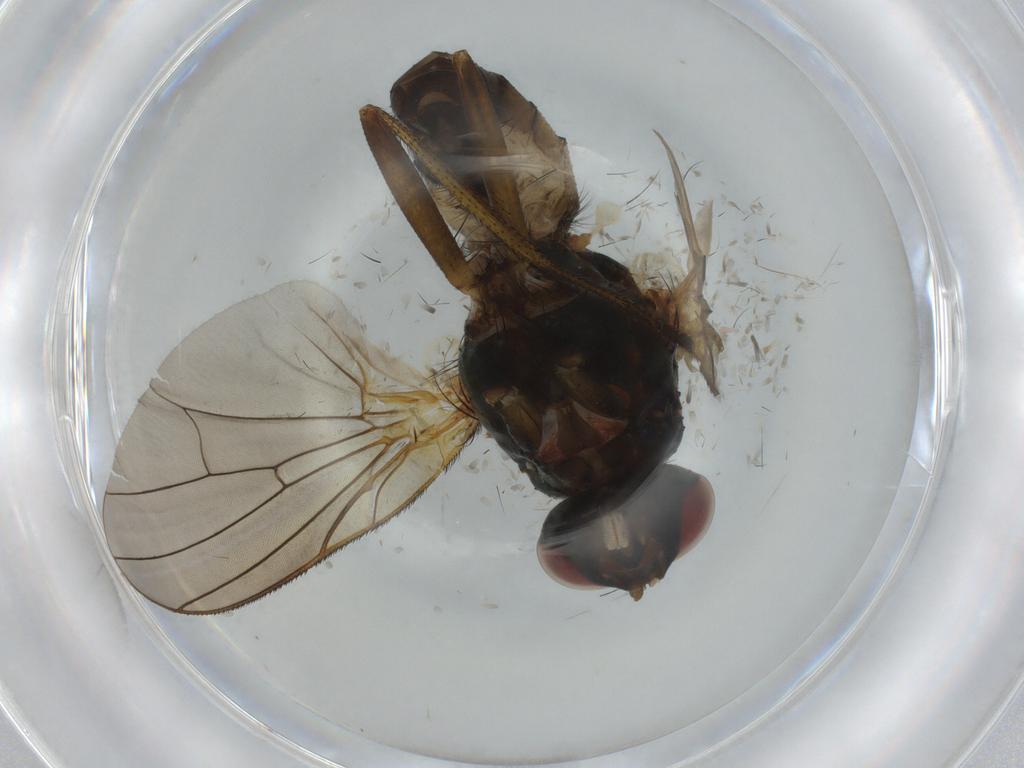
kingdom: Animalia
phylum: Arthropoda
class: Insecta
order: Diptera
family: Anthomyiidae
